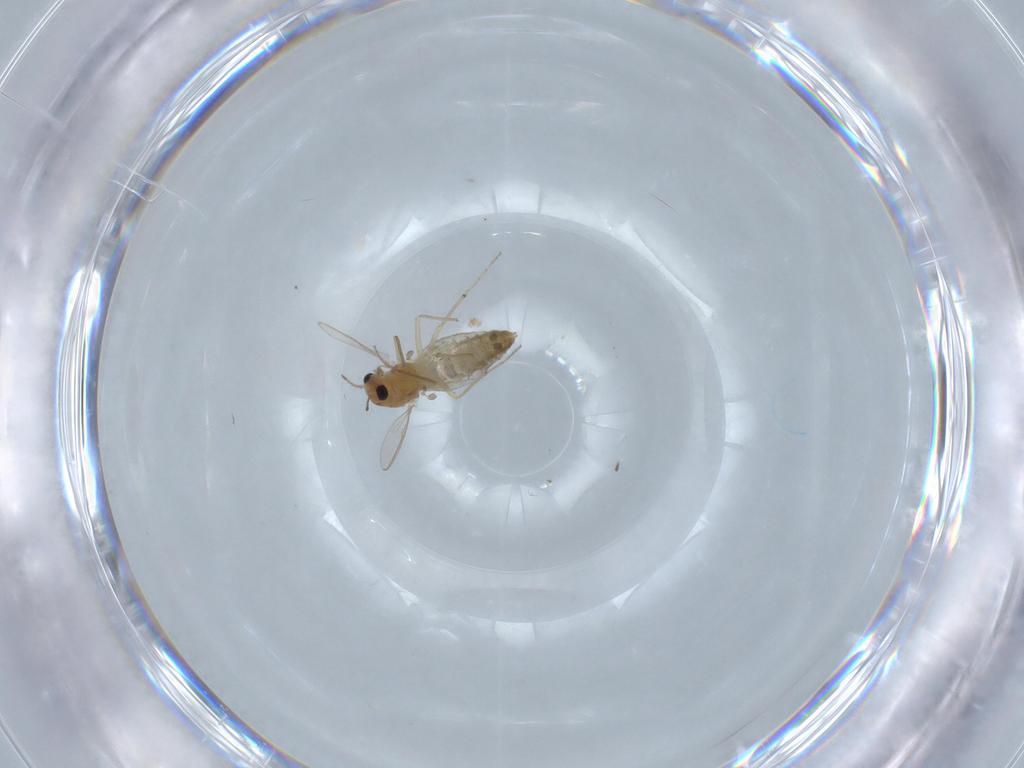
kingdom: Animalia
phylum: Arthropoda
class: Insecta
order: Diptera
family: Chironomidae
